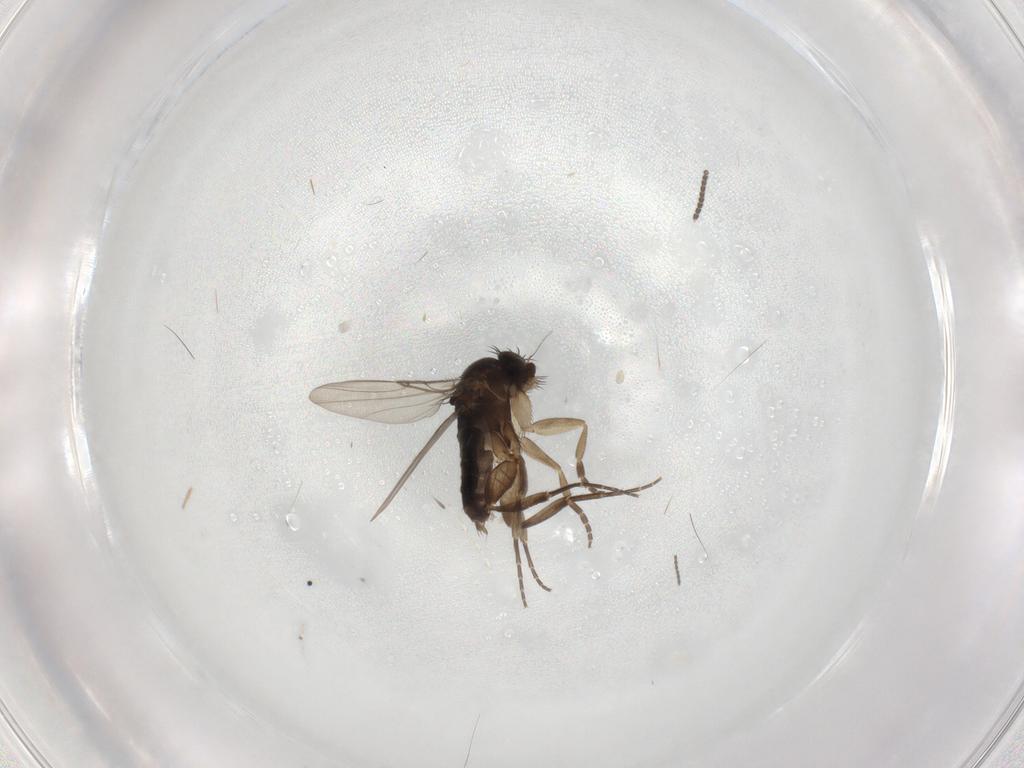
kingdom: Animalia
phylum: Arthropoda
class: Insecta
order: Diptera
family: Phoridae
